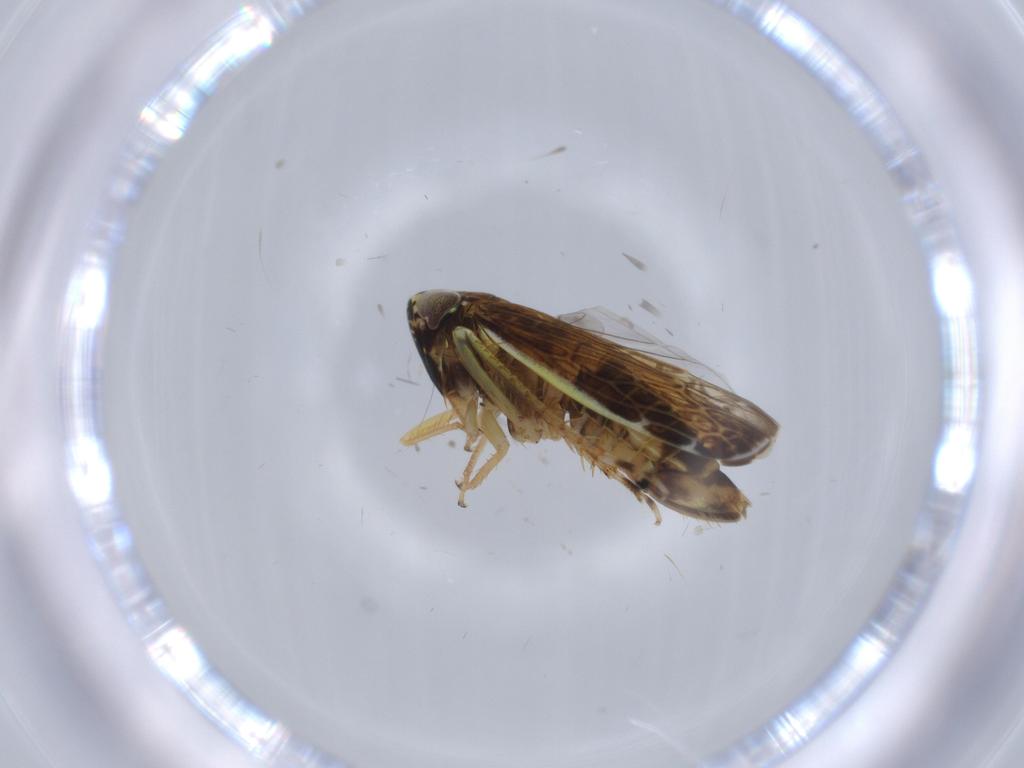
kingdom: Animalia
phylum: Arthropoda
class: Insecta
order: Hemiptera
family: Cicadellidae
